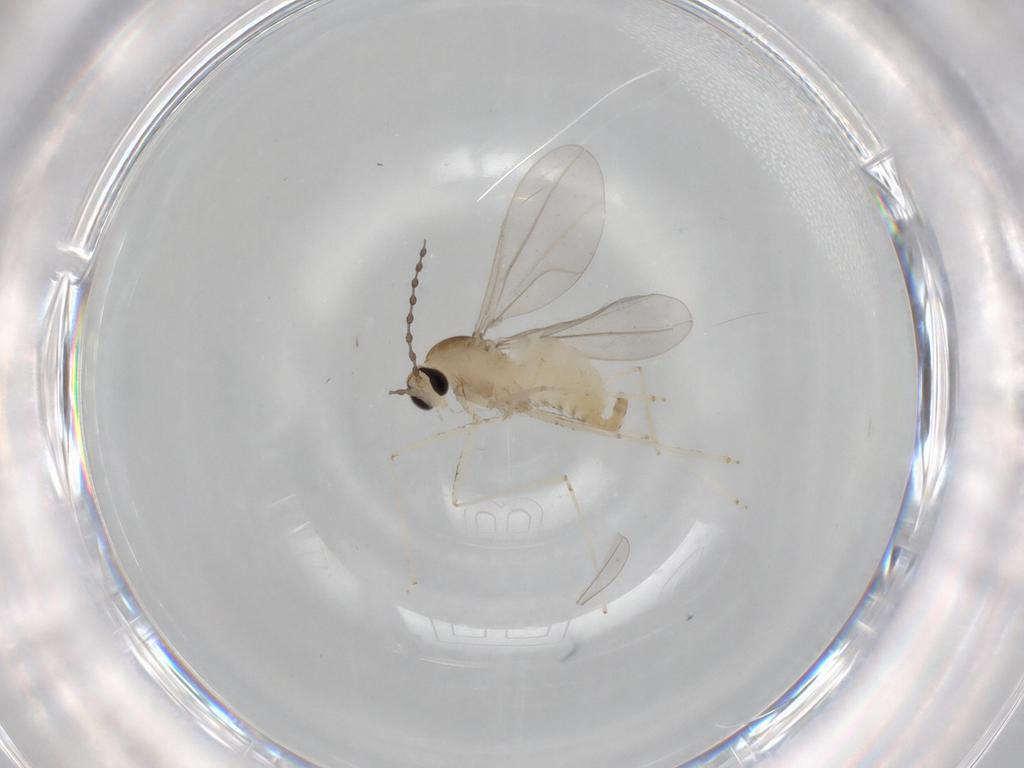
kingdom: Animalia
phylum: Arthropoda
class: Insecta
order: Diptera
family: Cecidomyiidae
